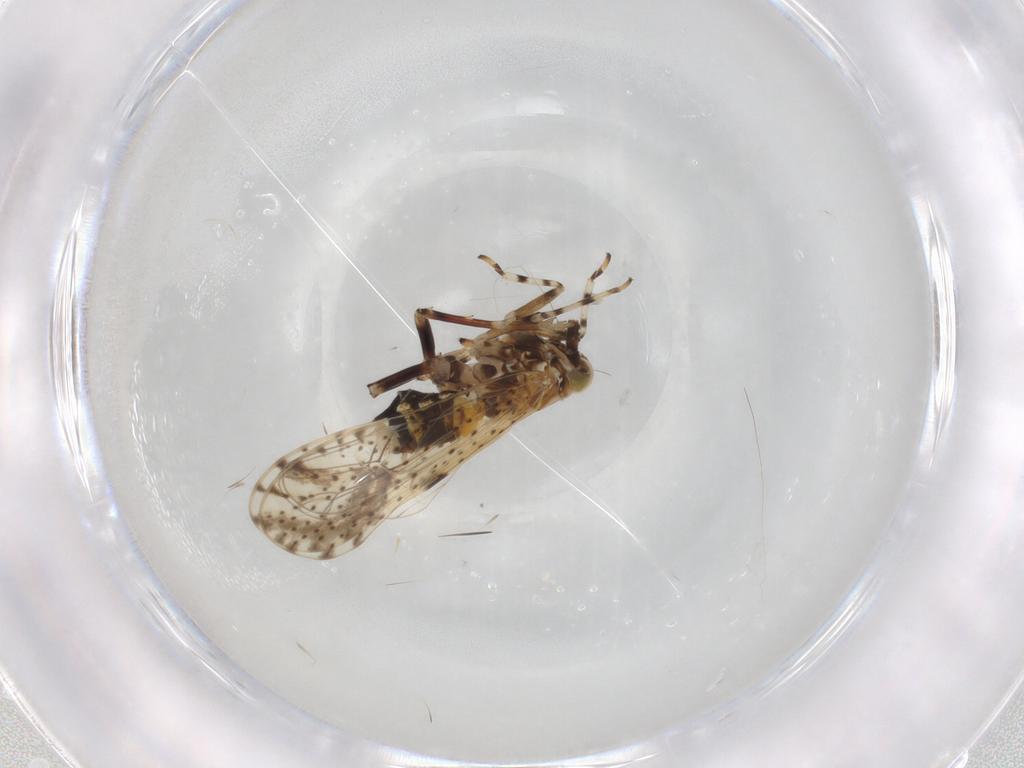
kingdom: Animalia
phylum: Arthropoda
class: Insecta
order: Hemiptera
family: Delphacidae
